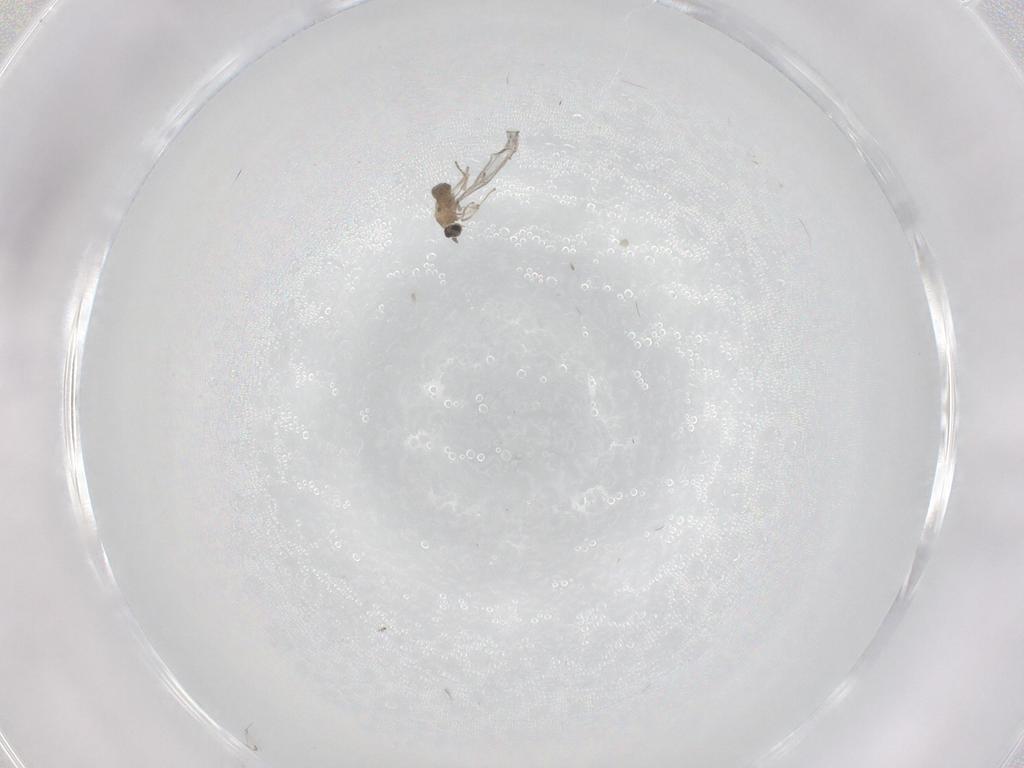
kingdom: Animalia
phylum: Arthropoda
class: Insecta
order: Diptera
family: Cecidomyiidae
